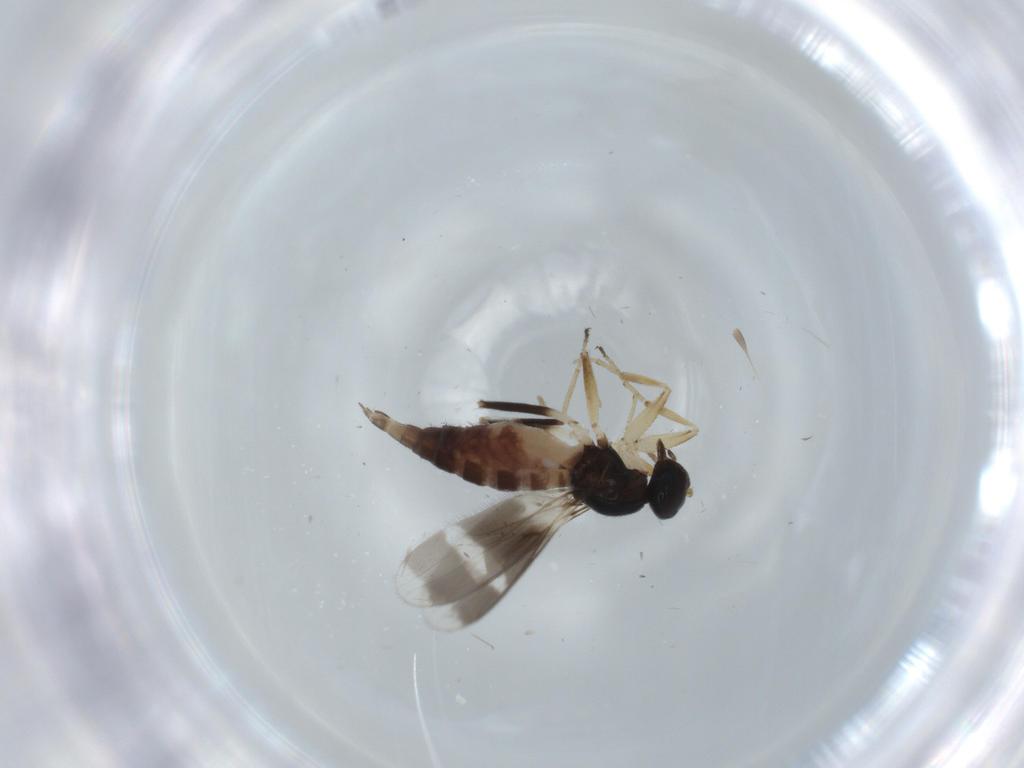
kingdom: Animalia
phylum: Arthropoda
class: Insecta
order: Diptera
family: Hybotidae
